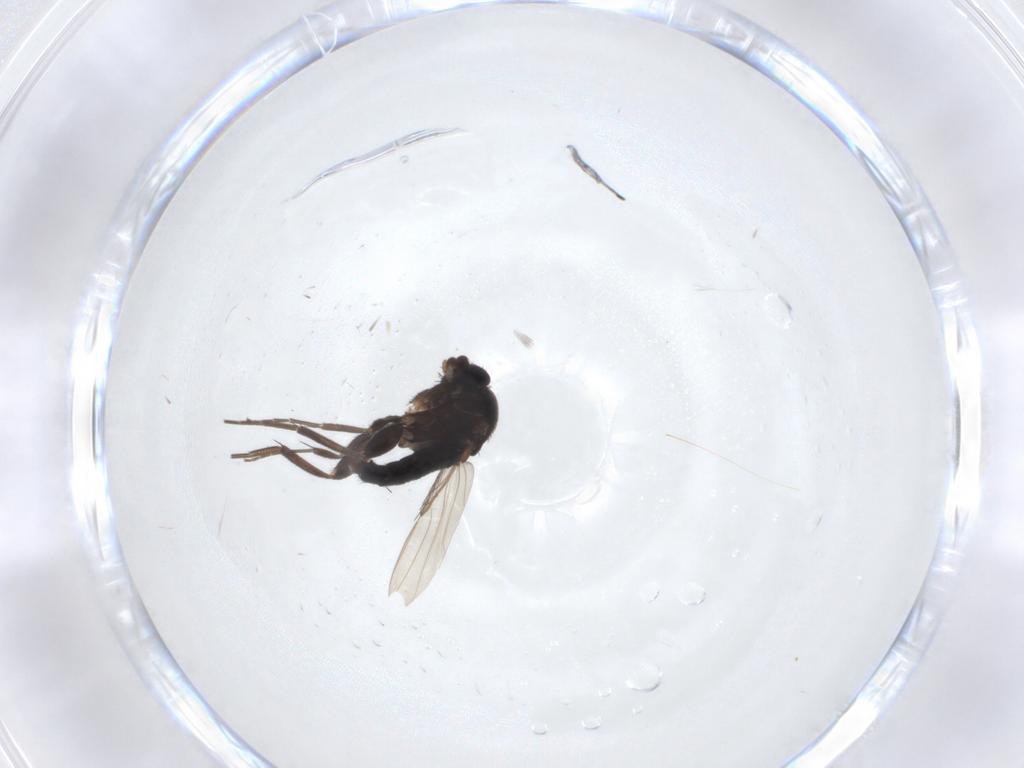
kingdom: Animalia
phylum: Arthropoda
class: Insecta
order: Diptera
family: Tipulidae
